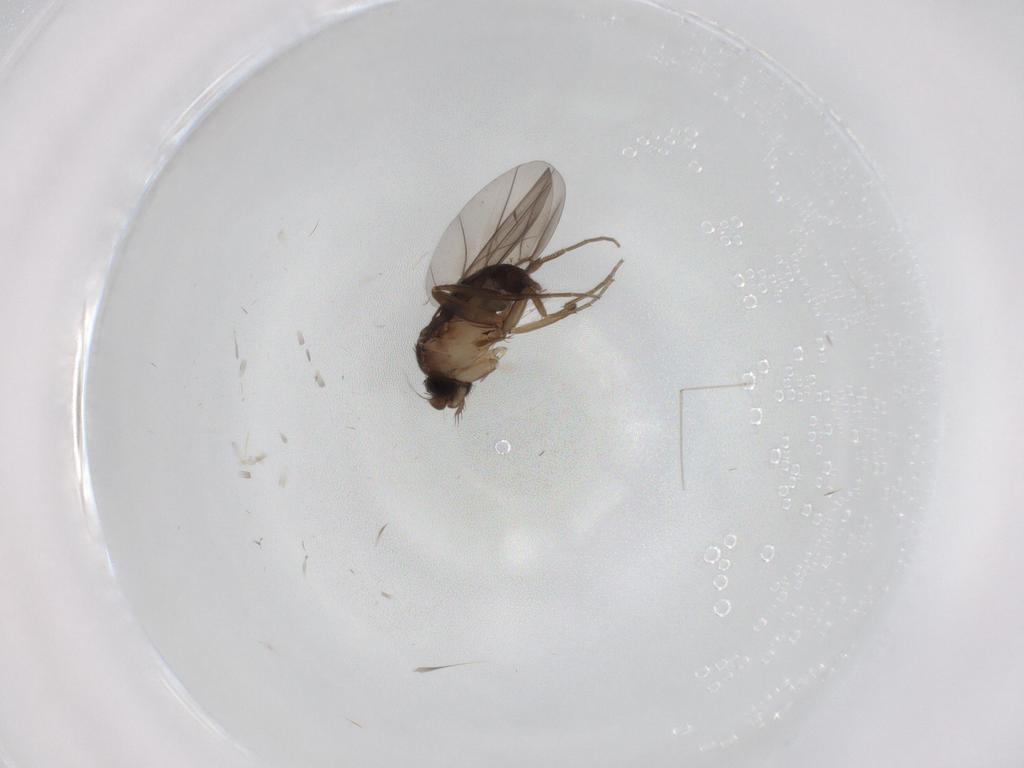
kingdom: Animalia
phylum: Arthropoda
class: Insecta
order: Diptera
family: Phoridae
